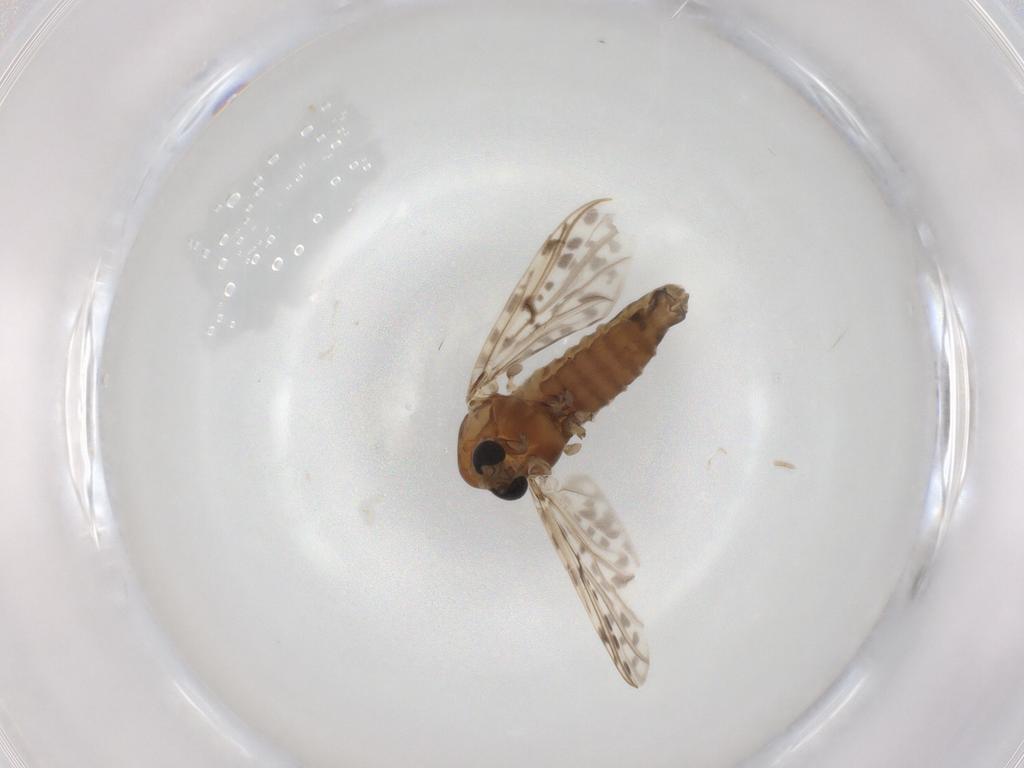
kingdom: Animalia
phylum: Arthropoda
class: Insecta
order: Diptera
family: Chironomidae
